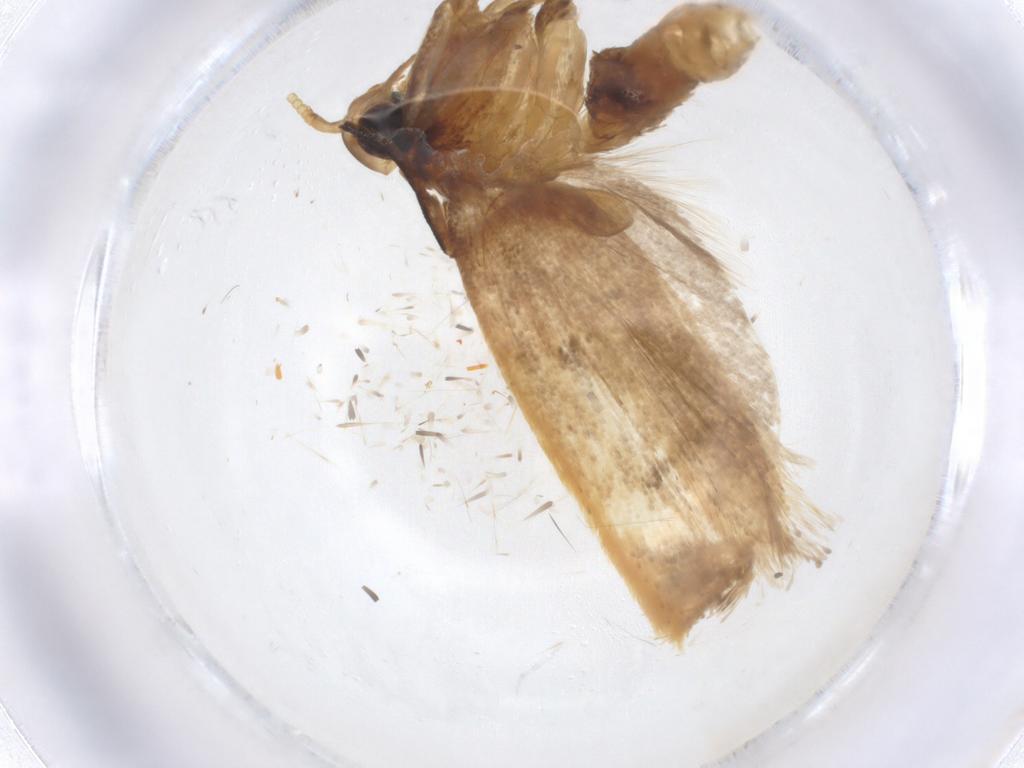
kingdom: Animalia
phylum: Arthropoda
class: Insecta
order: Lepidoptera
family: Lecithoceridae
